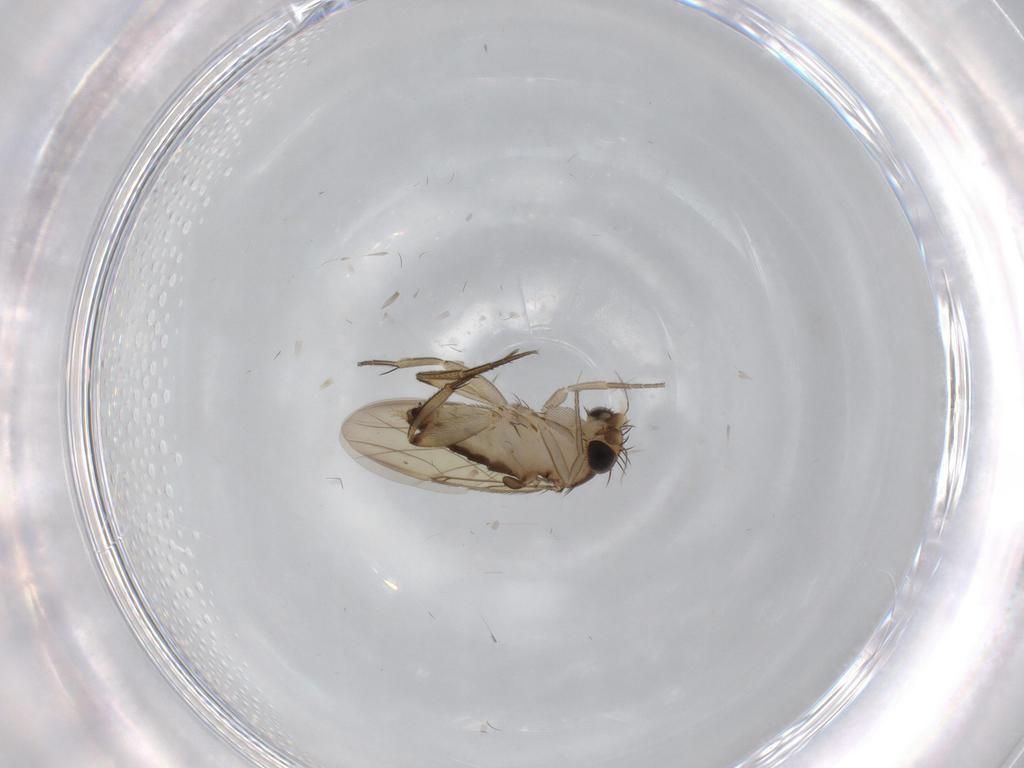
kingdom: Animalia
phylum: Arthropoda
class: Insecta
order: Diptera
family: Phoridae
